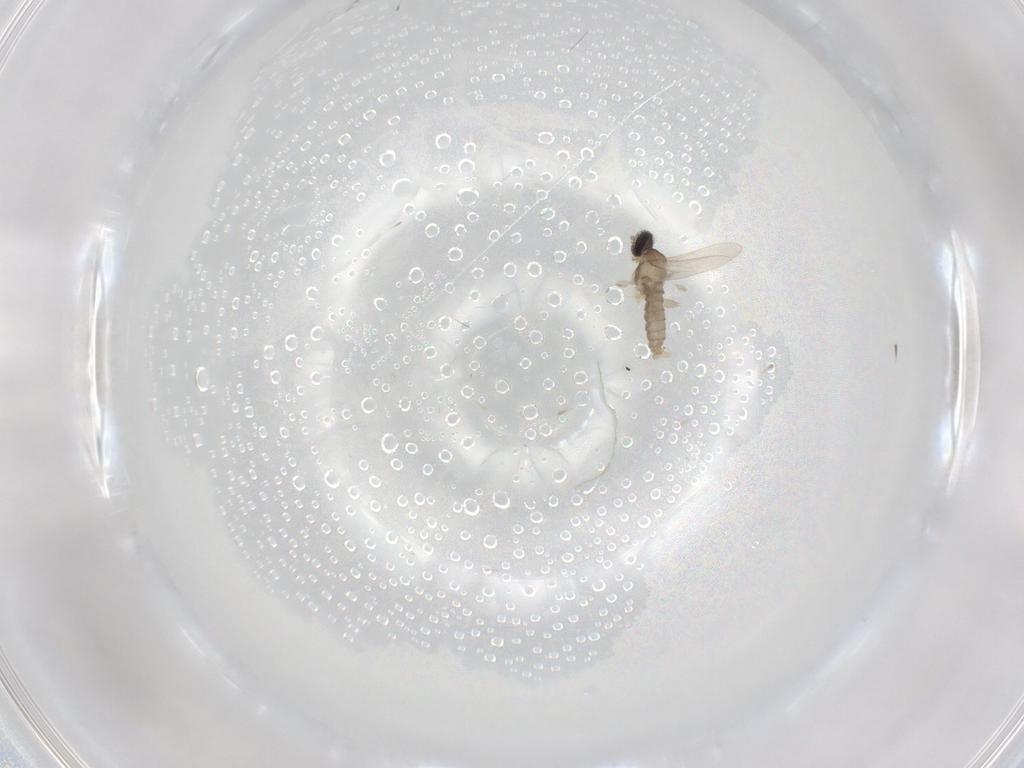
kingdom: Animalia
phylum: Arthropoda
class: Insecta
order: Diptera
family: Cecidomyiidae
